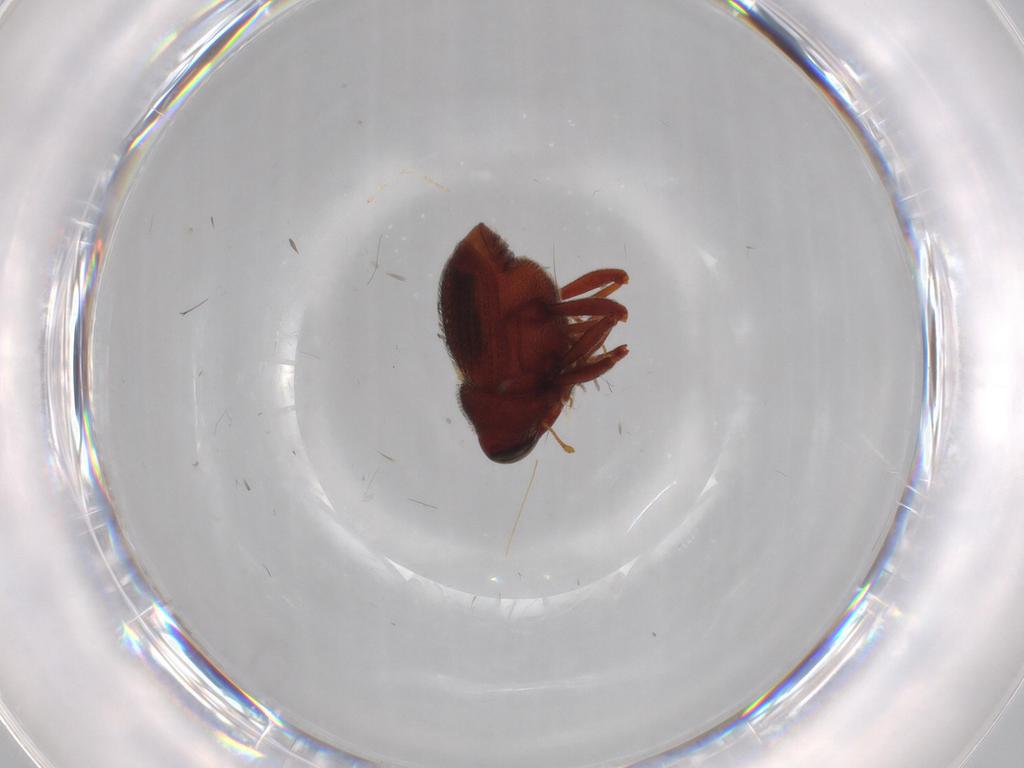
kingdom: Animalia
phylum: Arthropoda
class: Insecta
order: Coleoptera
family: Curculionidae
